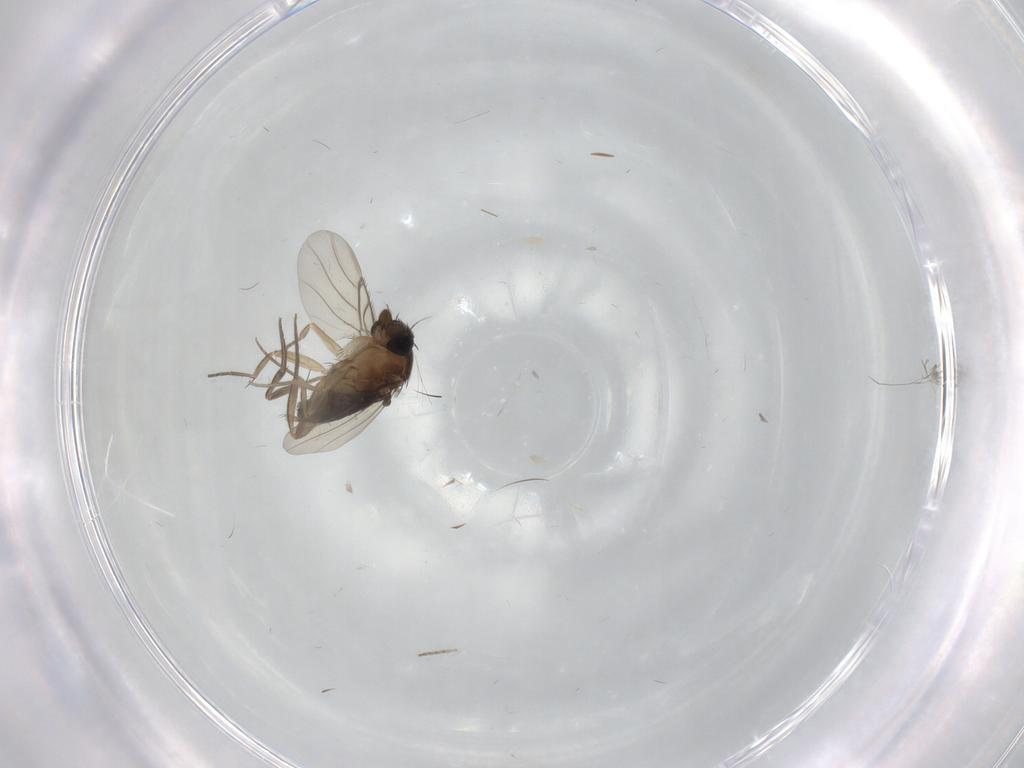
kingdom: Animalia
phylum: Arthropoda
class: Insecta
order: Diptera
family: Phoridae
